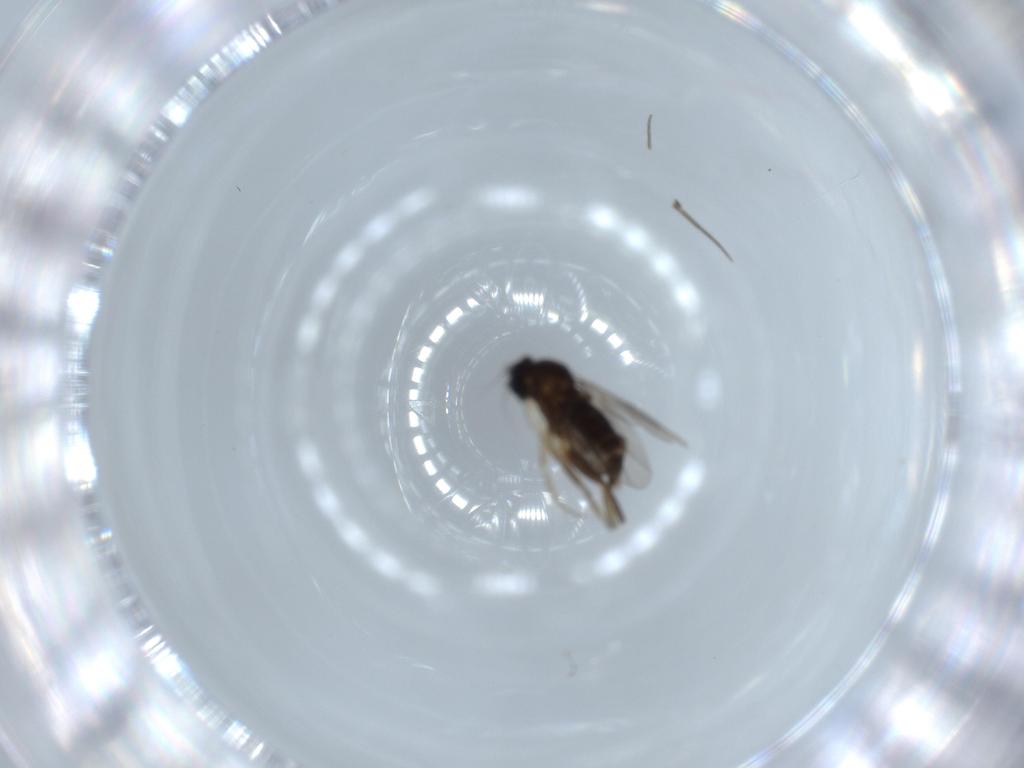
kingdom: Animalia
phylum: Arthropoda
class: Insecta
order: Diptera
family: Phoridae
